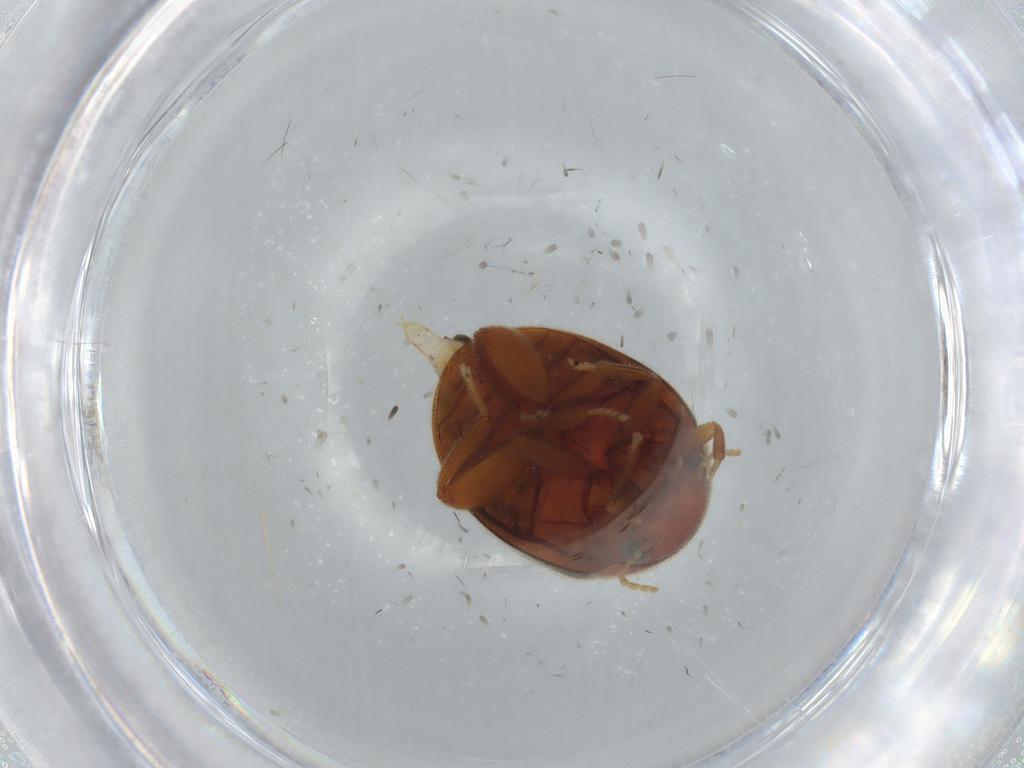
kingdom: Animalia
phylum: Arthropoda
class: Insecta
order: Coleoptera
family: Scirtidae
